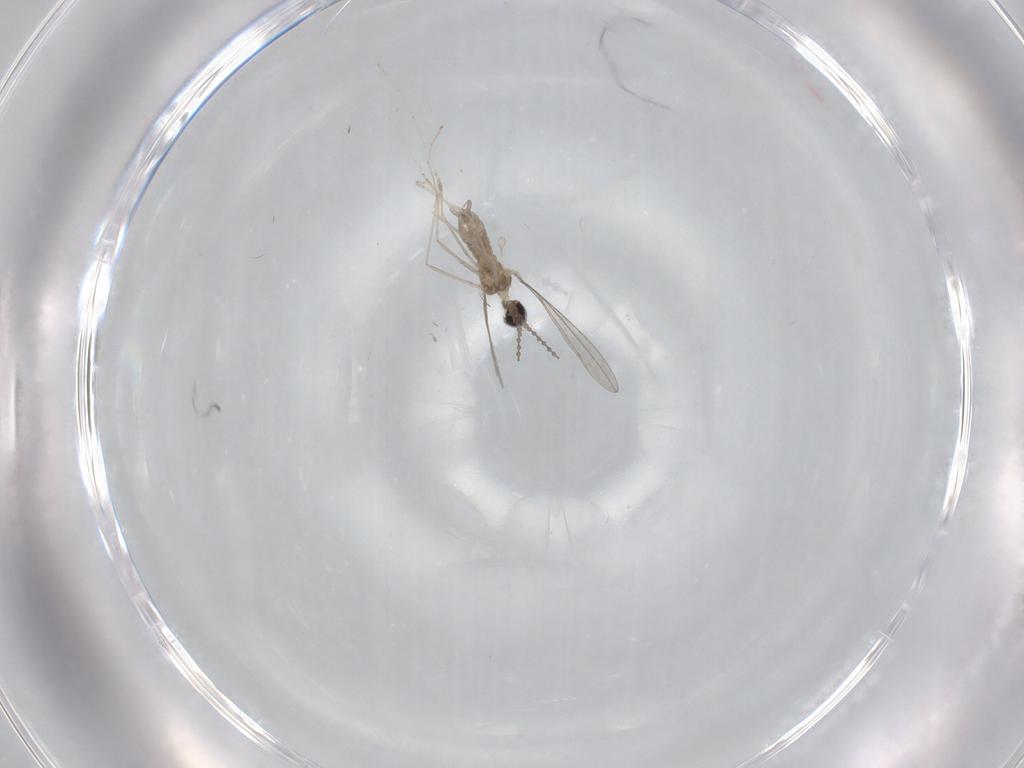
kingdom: Animalia
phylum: Arthropoda
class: Insecta
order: Diptera
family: Cecidomyiidae
